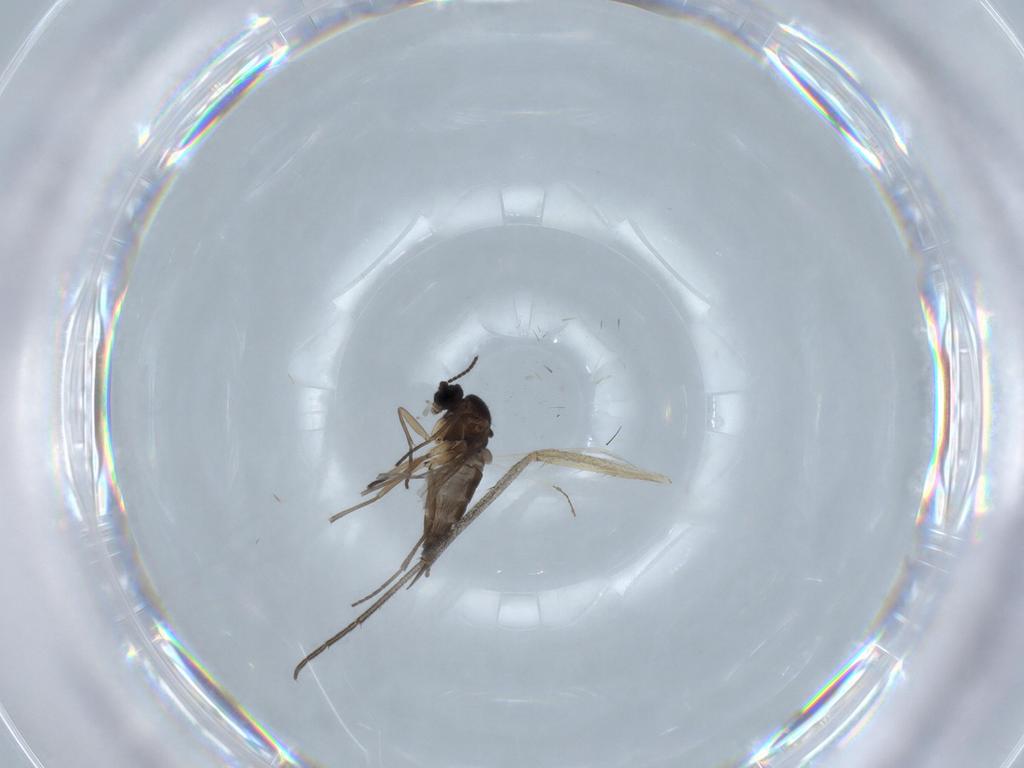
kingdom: Animalia
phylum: Arthropoda
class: Insecta
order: Diptera
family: Mycetophilidae
